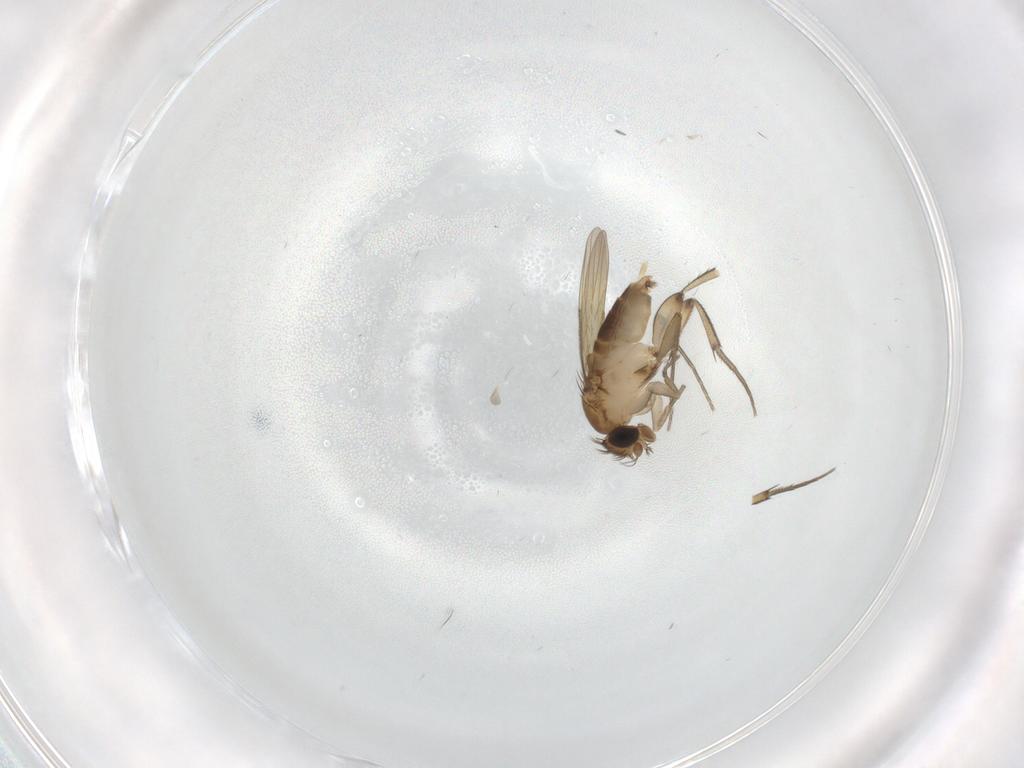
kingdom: Animalia
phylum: Arthropoda
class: Insecta
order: Diptera
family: Phoridae
